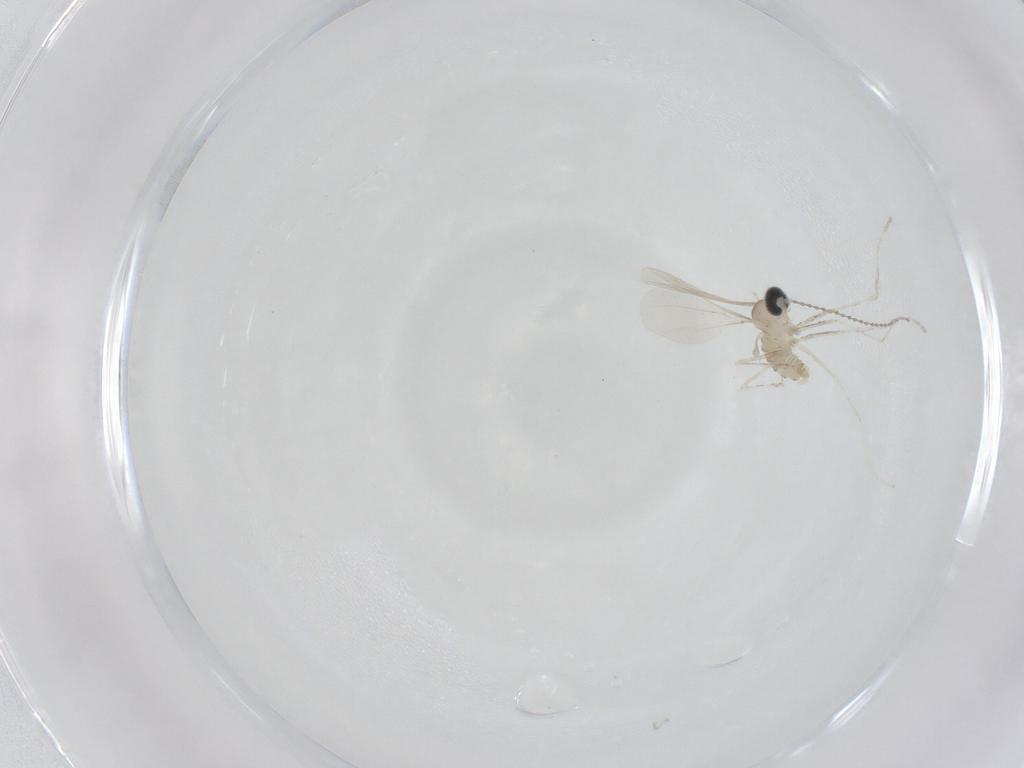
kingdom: Animalia
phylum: Arthropoda
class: Insecta
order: Diptera
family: Cecidomyiidae
